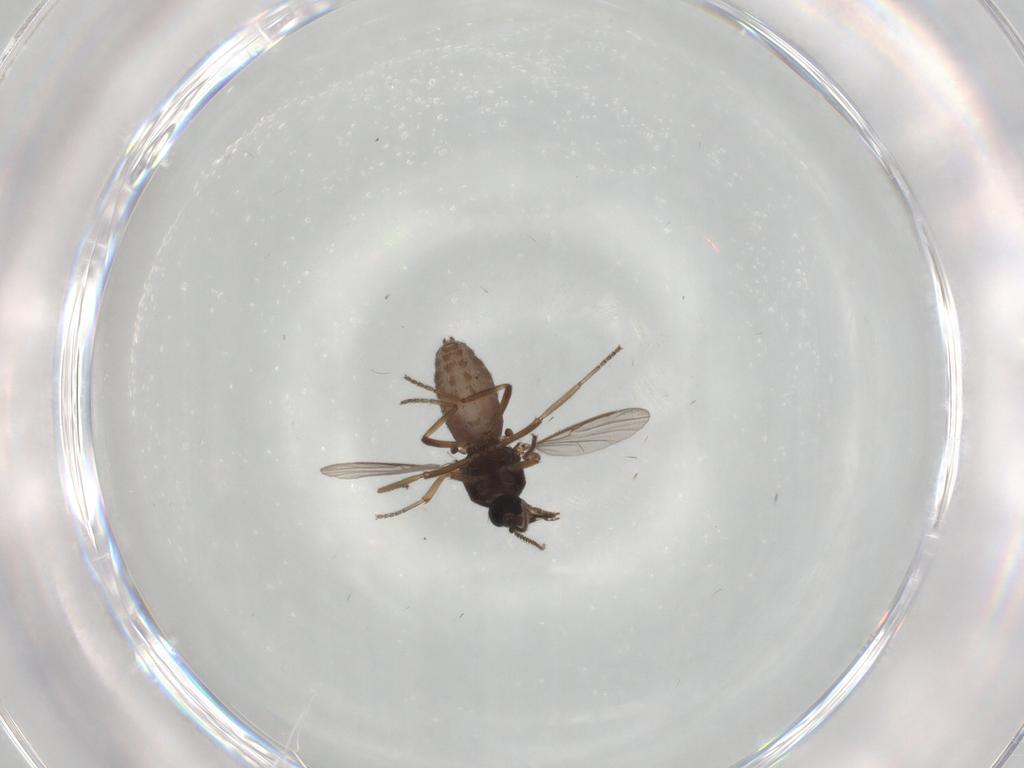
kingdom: Animalia
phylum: Arthropoda
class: Insecta
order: Diptera
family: Ceratopogonidae
